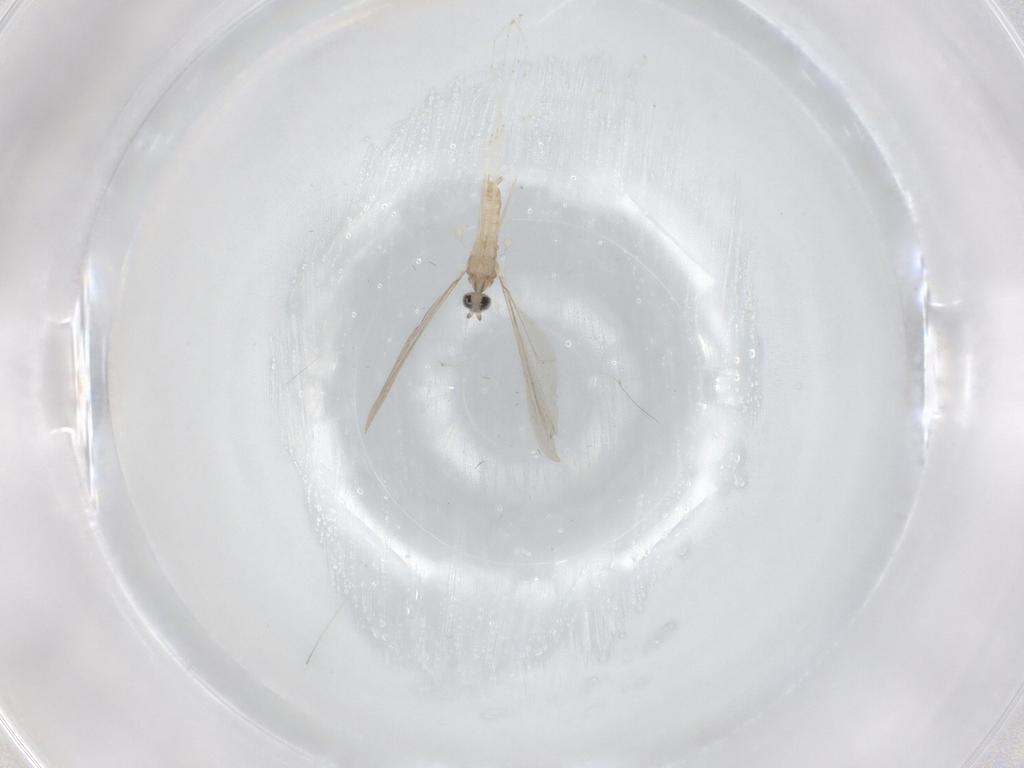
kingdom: Animalia
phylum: Arthropoda
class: Insecta
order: Diptera
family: Cecidomyiidae
